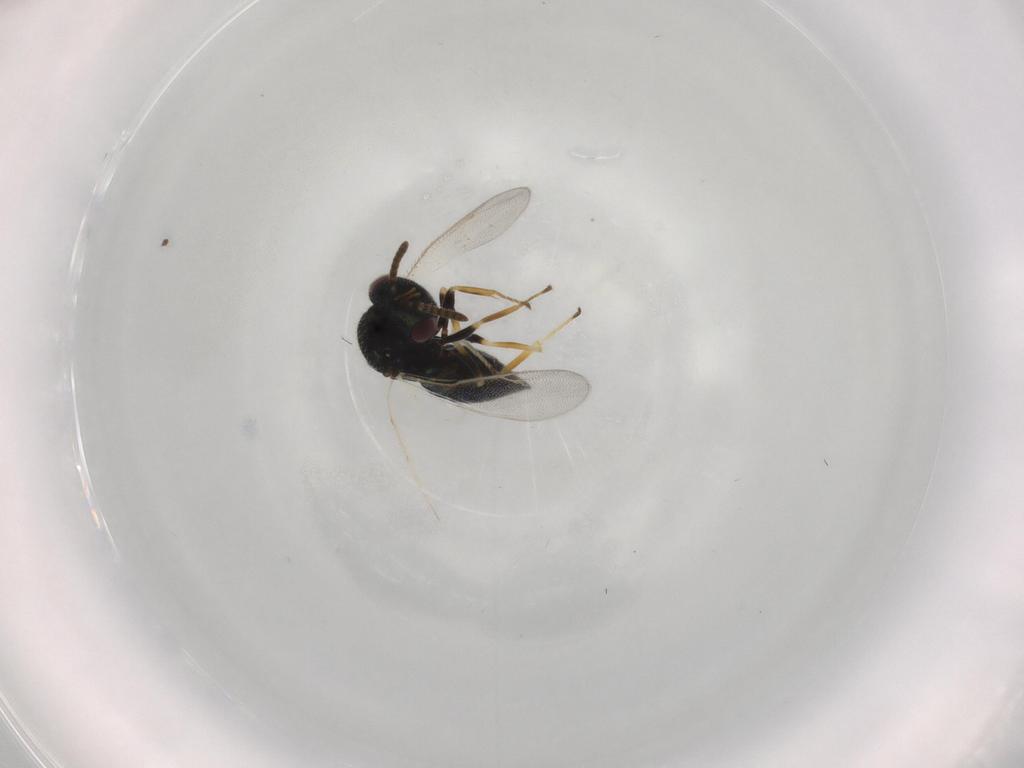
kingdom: Animalia
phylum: Arthropoda
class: Insecta
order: Hymenoptera
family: Pteromalidae
